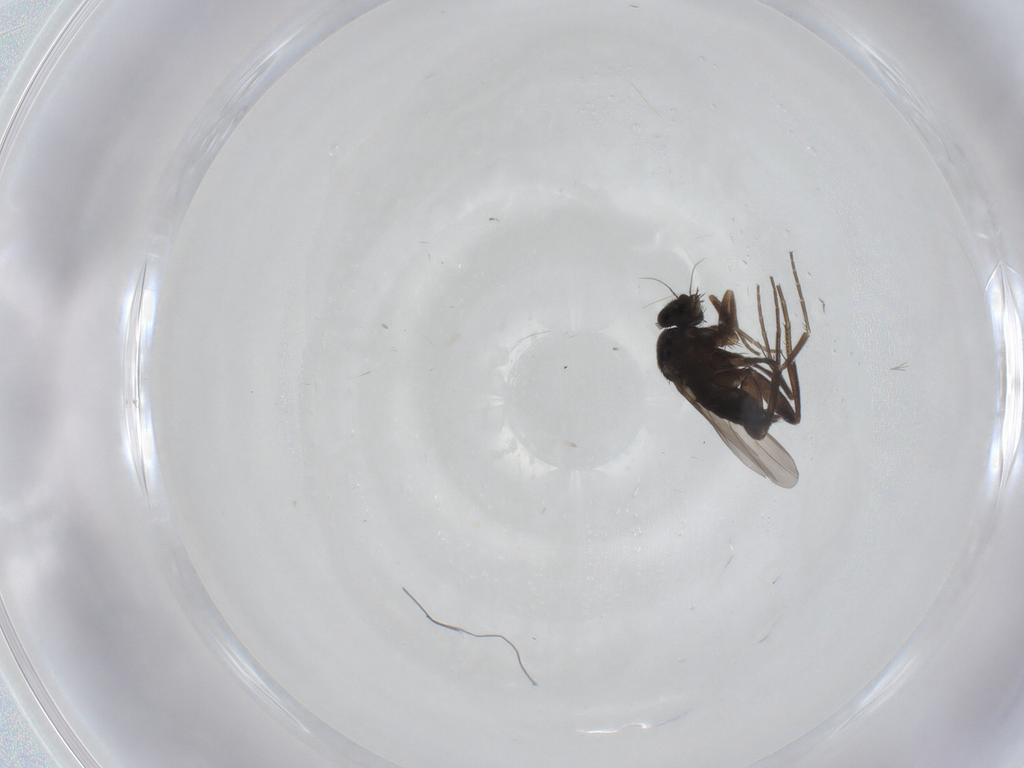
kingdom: Animalia
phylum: Arthropoda
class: Insecta
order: Diptera
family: Phoridae
